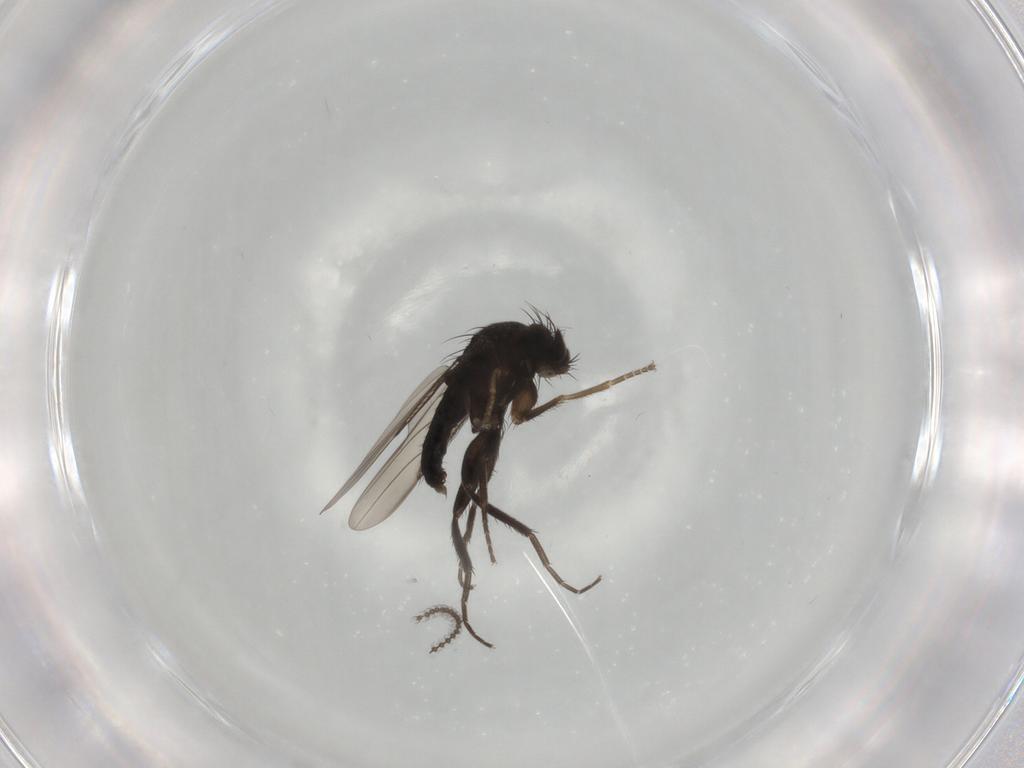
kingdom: Animalia
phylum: Arthropoda
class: Insecta
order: Diptera
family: Phoridae
